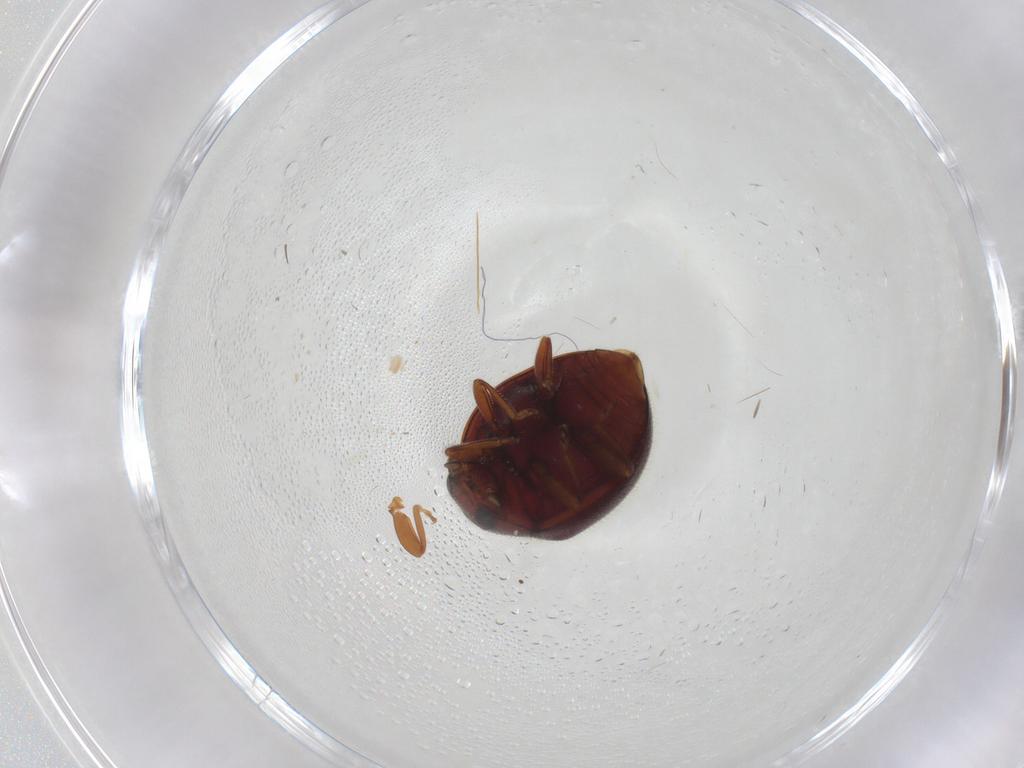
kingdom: Animalia
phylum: Arthropoda
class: Insecta
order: Coleoptera
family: Coccinellidae
